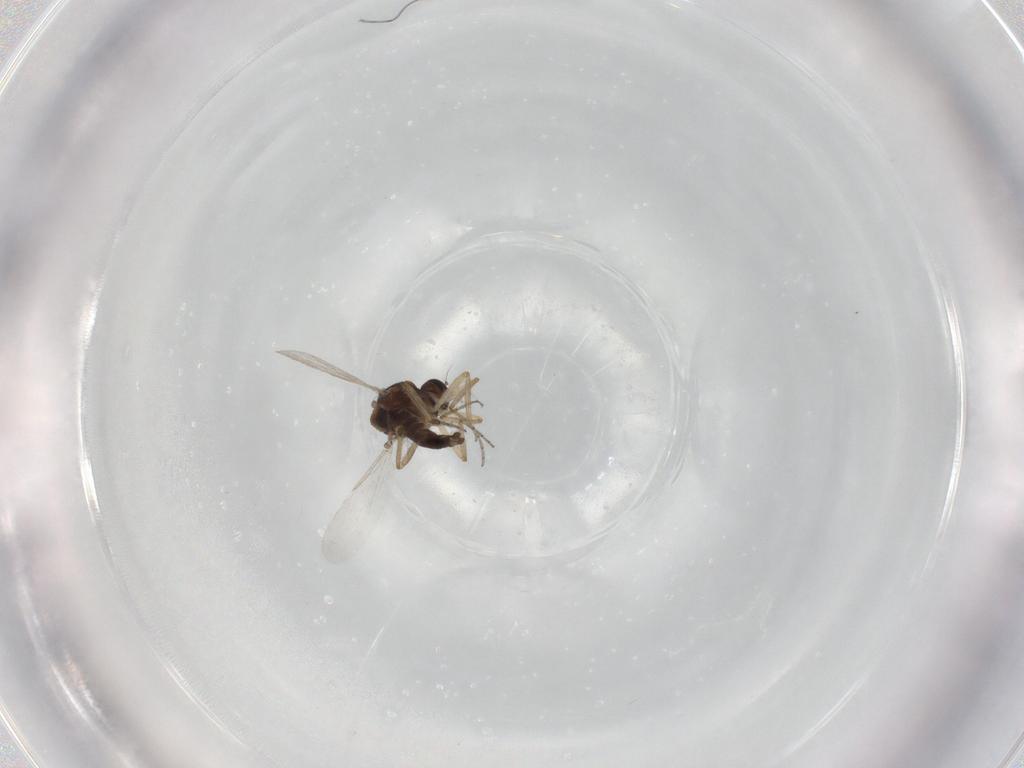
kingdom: Animalia
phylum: Arthropoda
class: Insecta
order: Diptera
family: Ceratopogonidae
